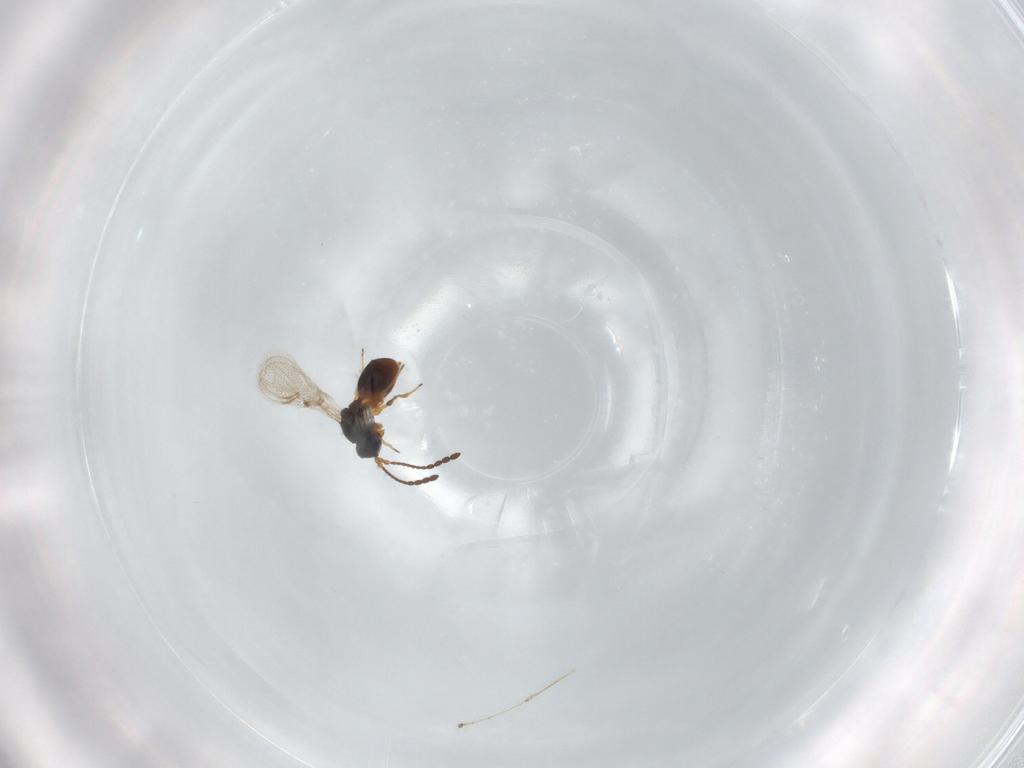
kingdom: Animalia
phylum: Arthropoda
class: Insecta
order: Hymenoptera
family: Figitidae
